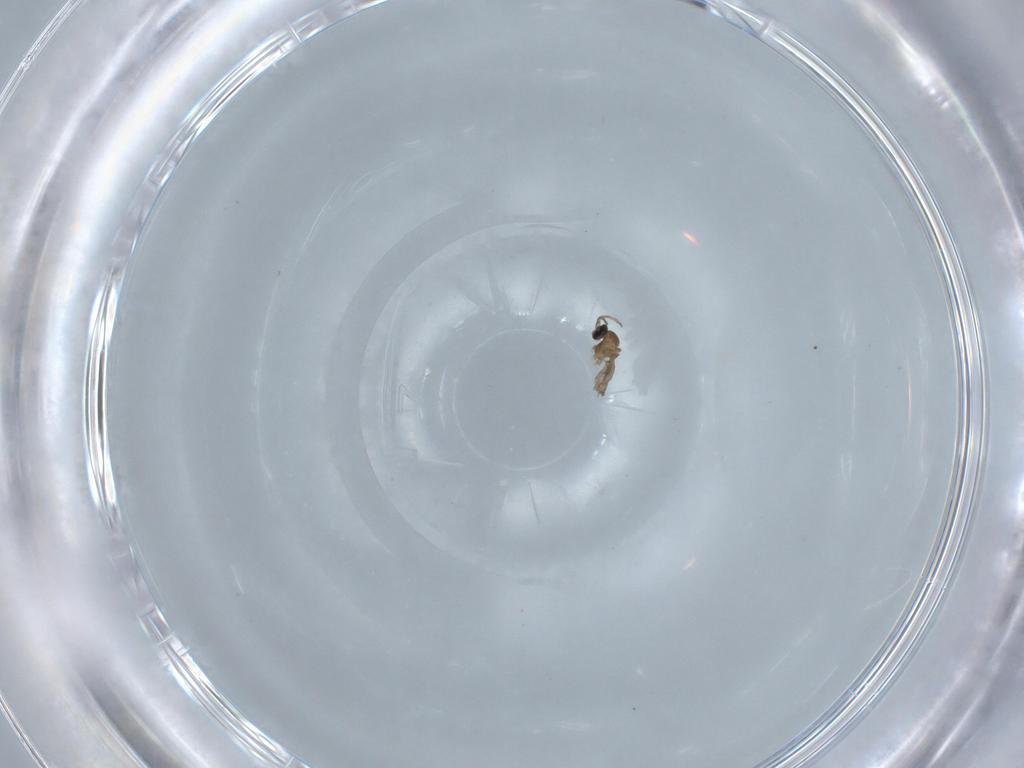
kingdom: Animalia
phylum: Arthropoda
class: Insecta
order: Diptera
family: Cecidomyiidae
